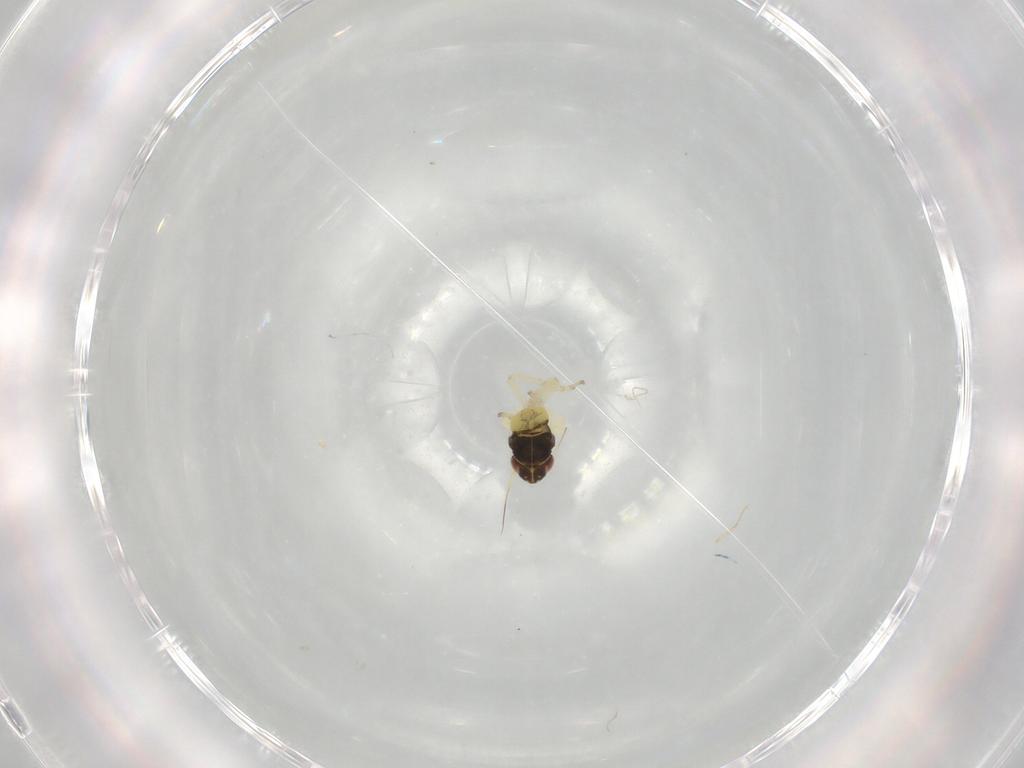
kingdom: Animalia
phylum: Arthropoda
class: Insecta
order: Hemiptera
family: Cicadellidae
